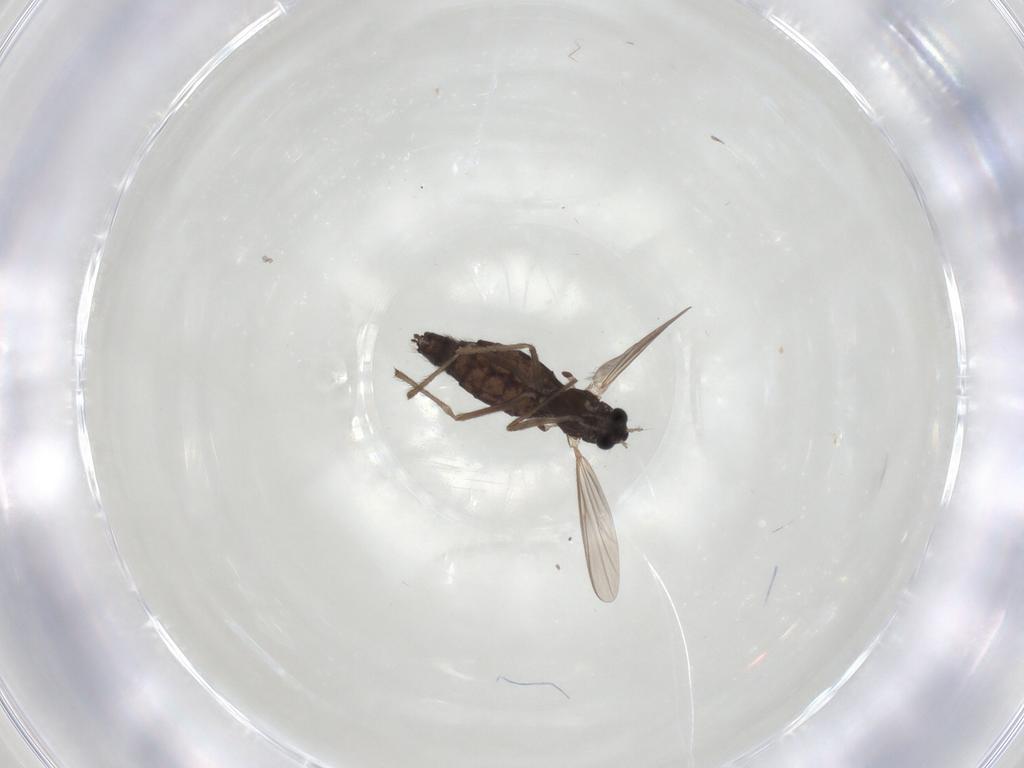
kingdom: Animalia
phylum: Arthropoda
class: Insecta
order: Diptera
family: Chironomidae
